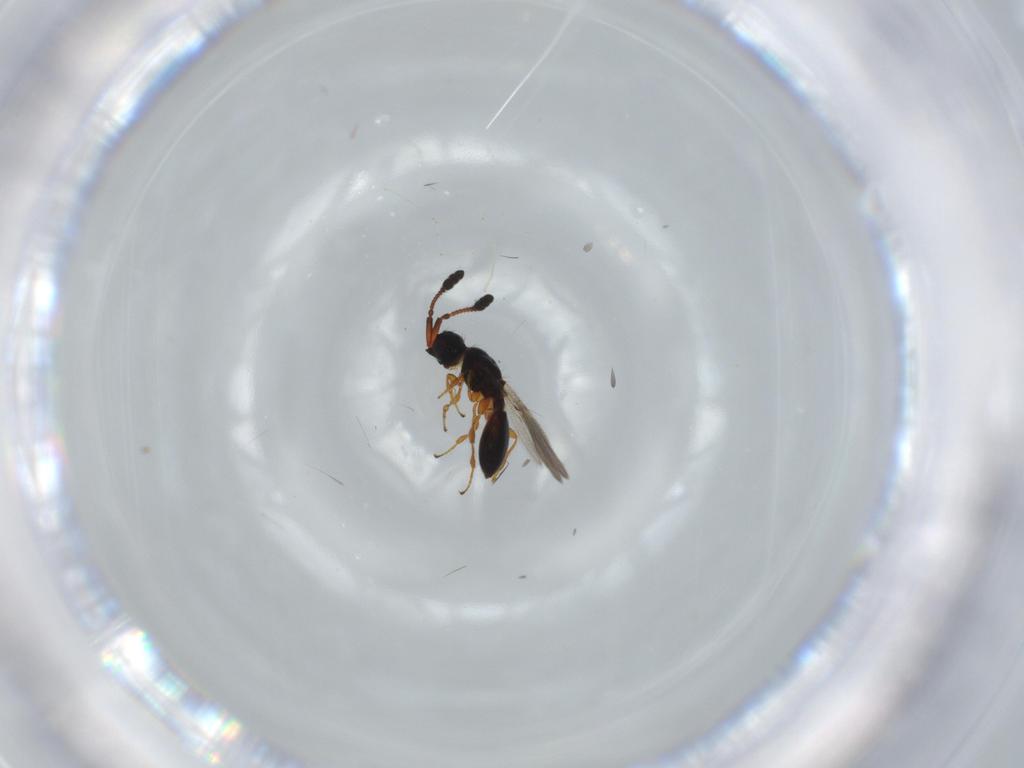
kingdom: Animalia
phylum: Arthropoda
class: Insecta
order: Hymenoptera
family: Diapriidae
